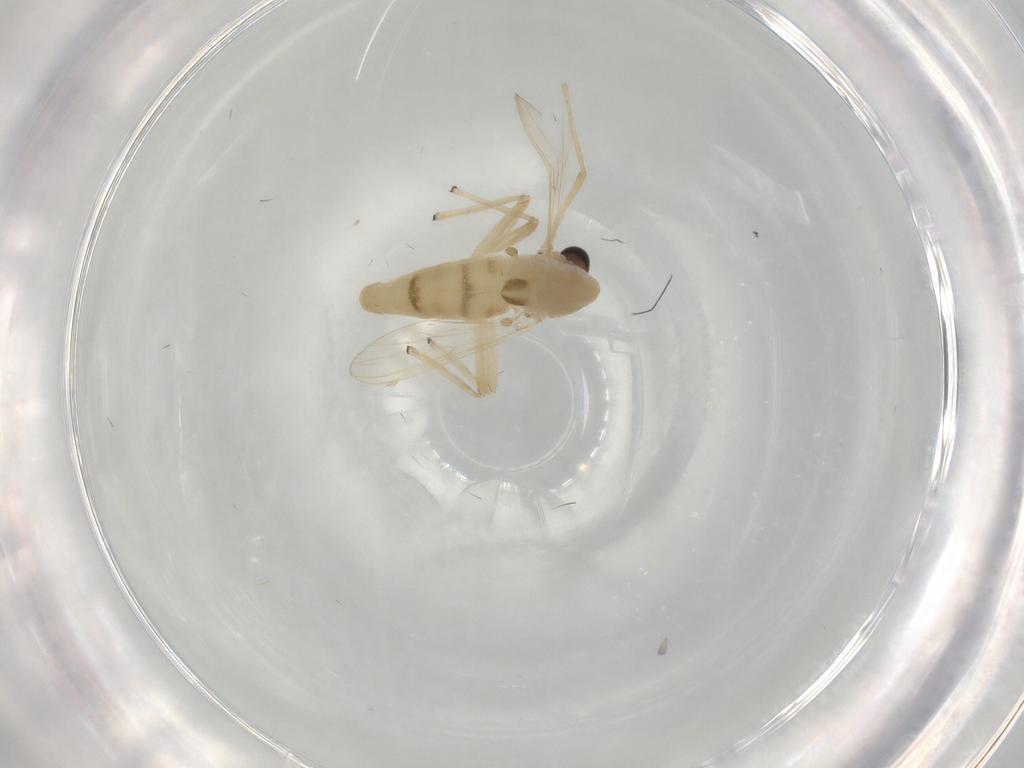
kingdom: Animalia
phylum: Arthropoda
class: Insecta
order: Diptera
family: Chironomidae
